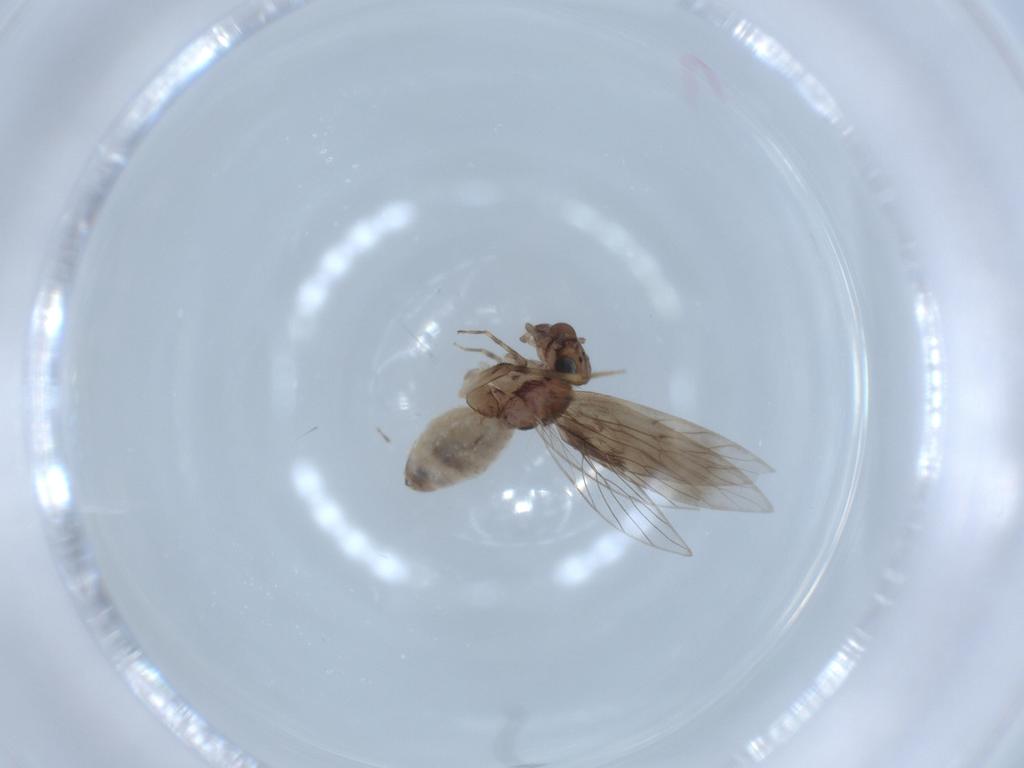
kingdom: Animalia
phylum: Arthropoda
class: Insecta
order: Psocodea
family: Lepidopsocidae
